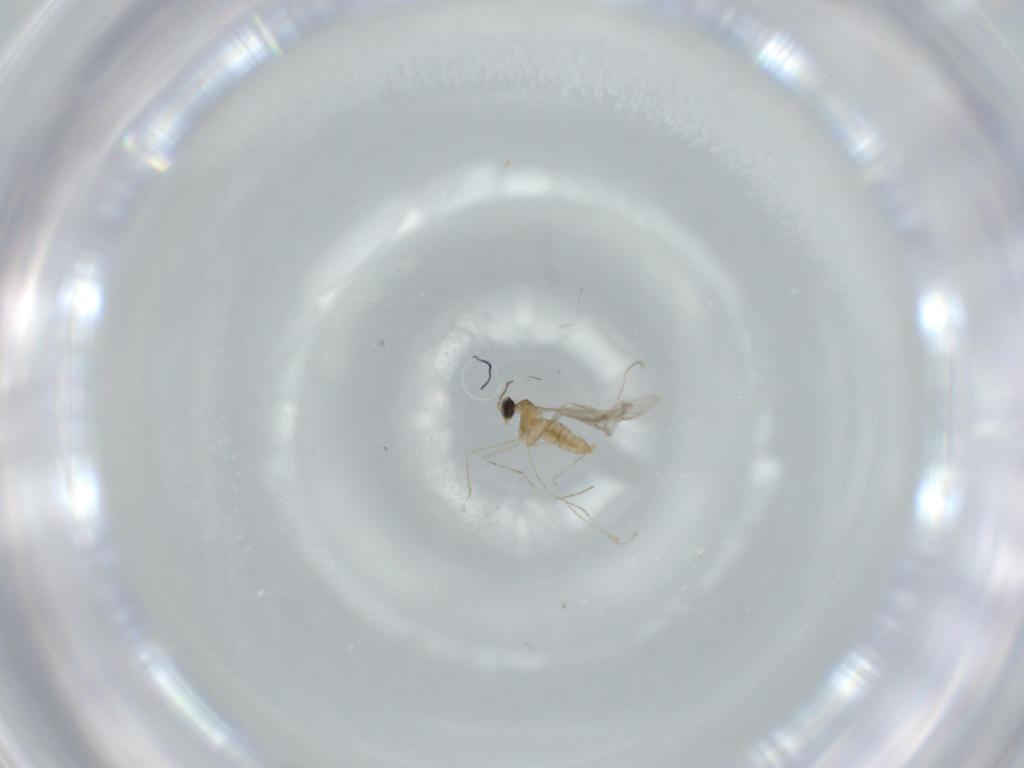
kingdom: Animalia
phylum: Arthropoda
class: Insecta
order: Diptera
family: Cecidomyiidae
